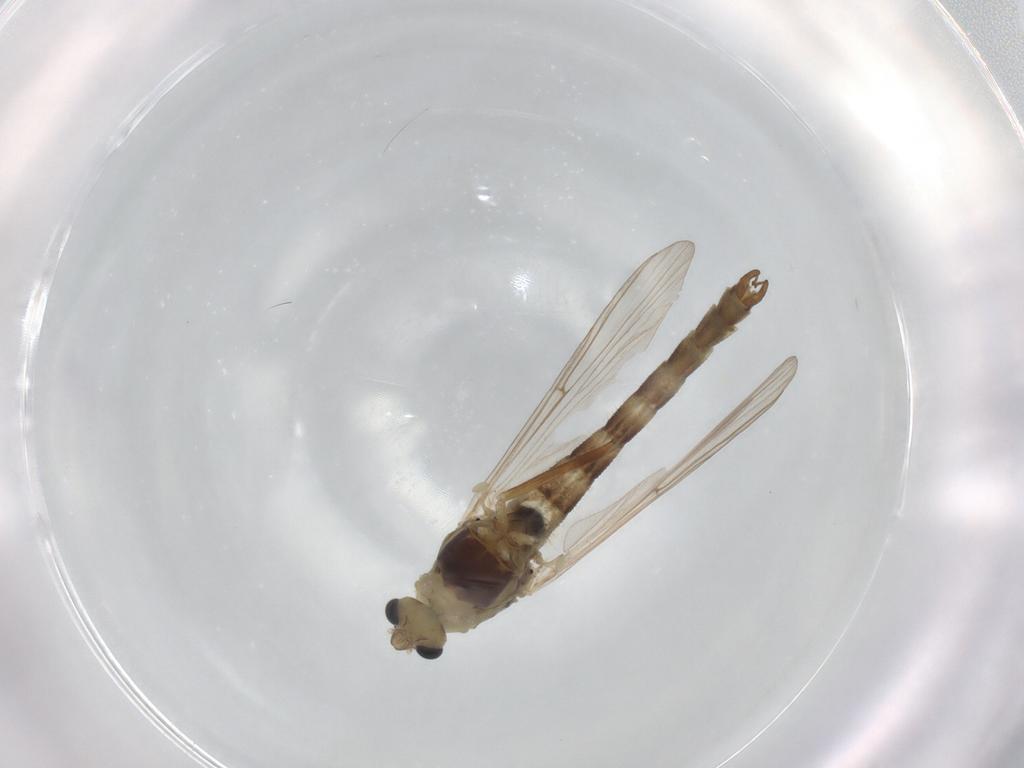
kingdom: Animalia
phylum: Arthropoda
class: Insecta
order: Diptera
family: Chironomidae
